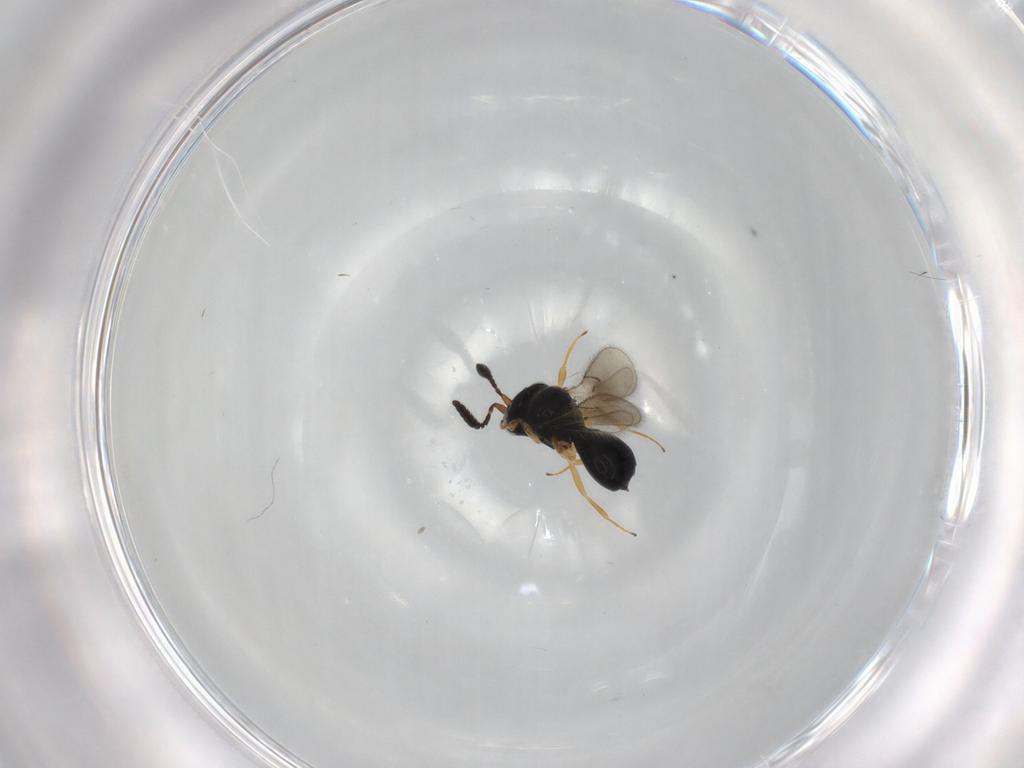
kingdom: Animalia
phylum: Arthropoda
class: Insecta
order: Hymenoptera
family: Scelionidae
